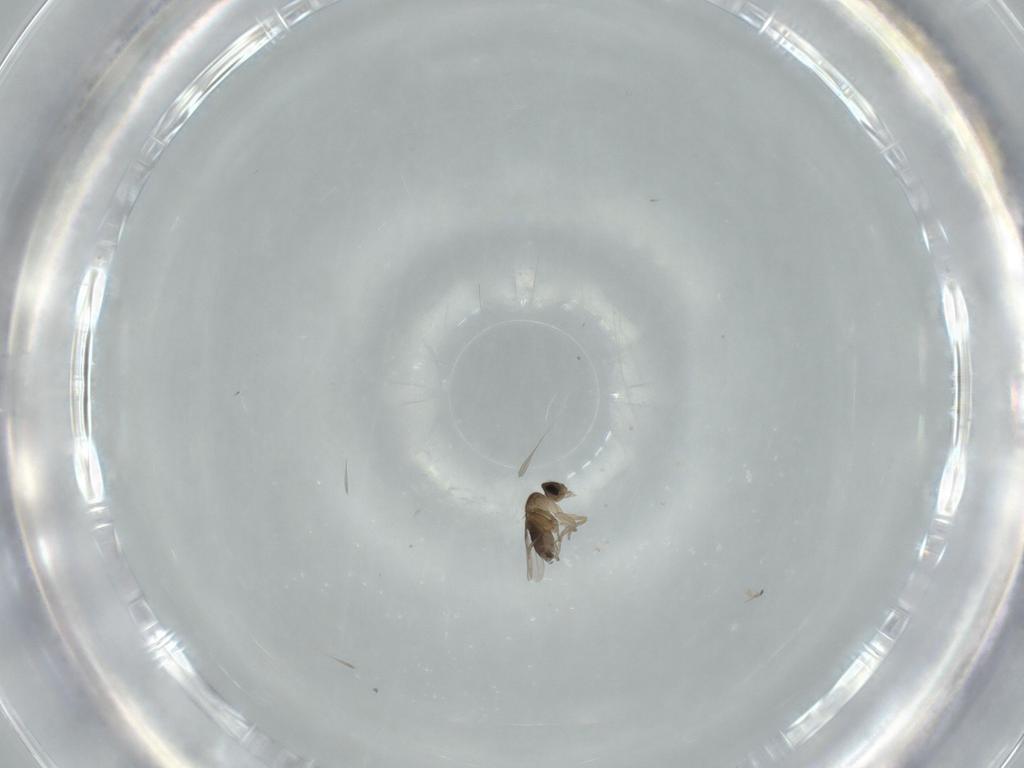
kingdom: Animalia
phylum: Arthropoda
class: Insecta
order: Diptera
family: Phoridae
